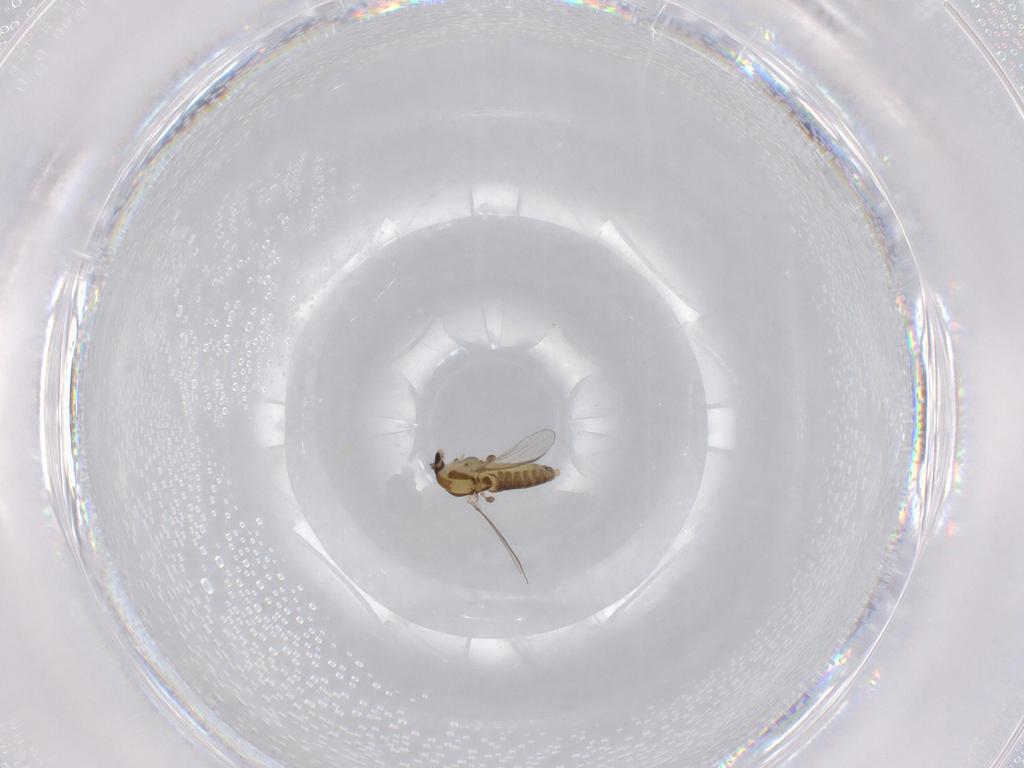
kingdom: Animalia
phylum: Arthropoda
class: Insecta
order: Diptera
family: Chironomidae
